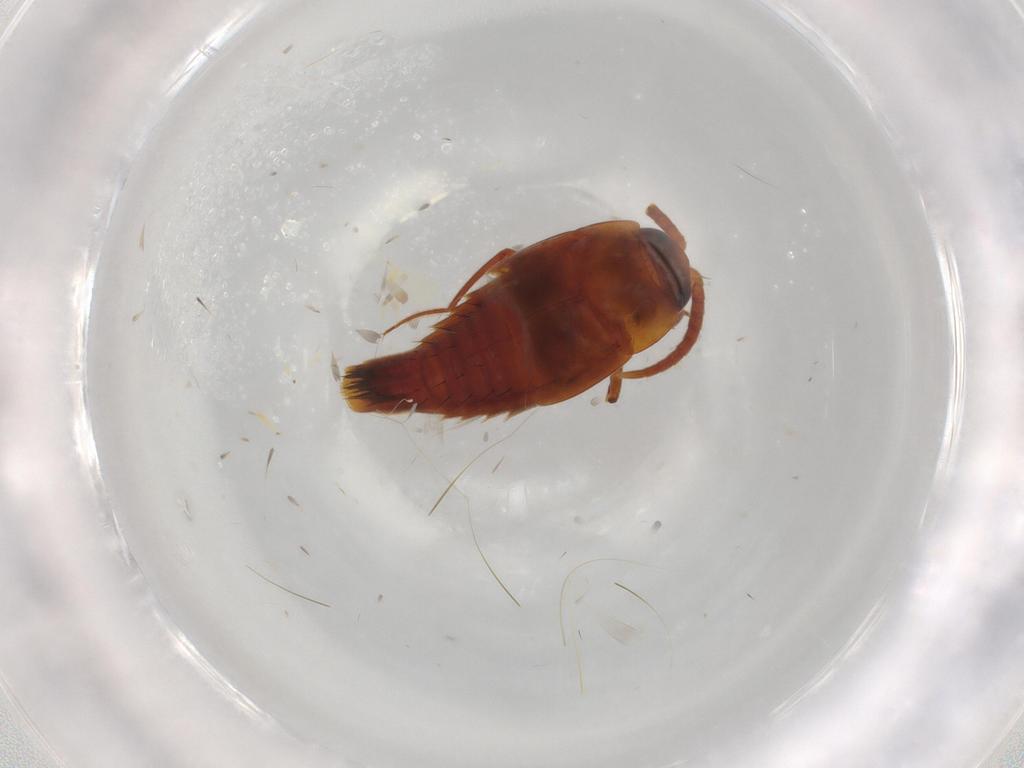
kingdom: Animalia
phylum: Arthropoda
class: Insecta
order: Coleoptera
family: Staphylinidae
